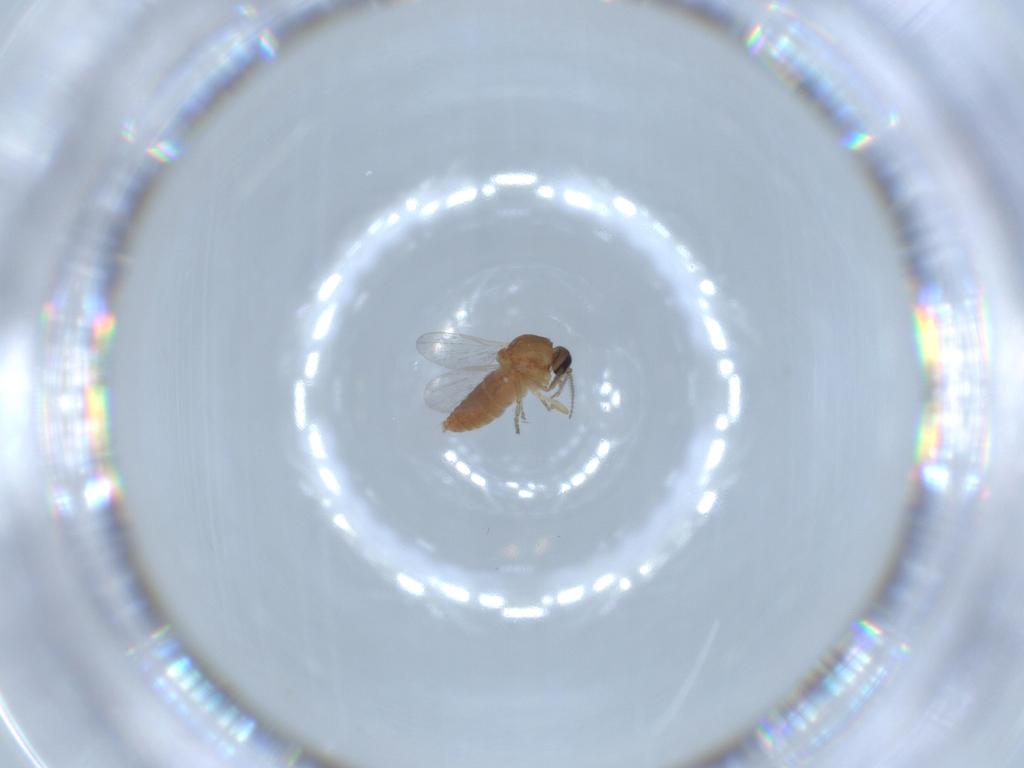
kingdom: Animalia
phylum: Arthropoda
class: Insecta
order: Diptera
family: Ceratopogonidae
